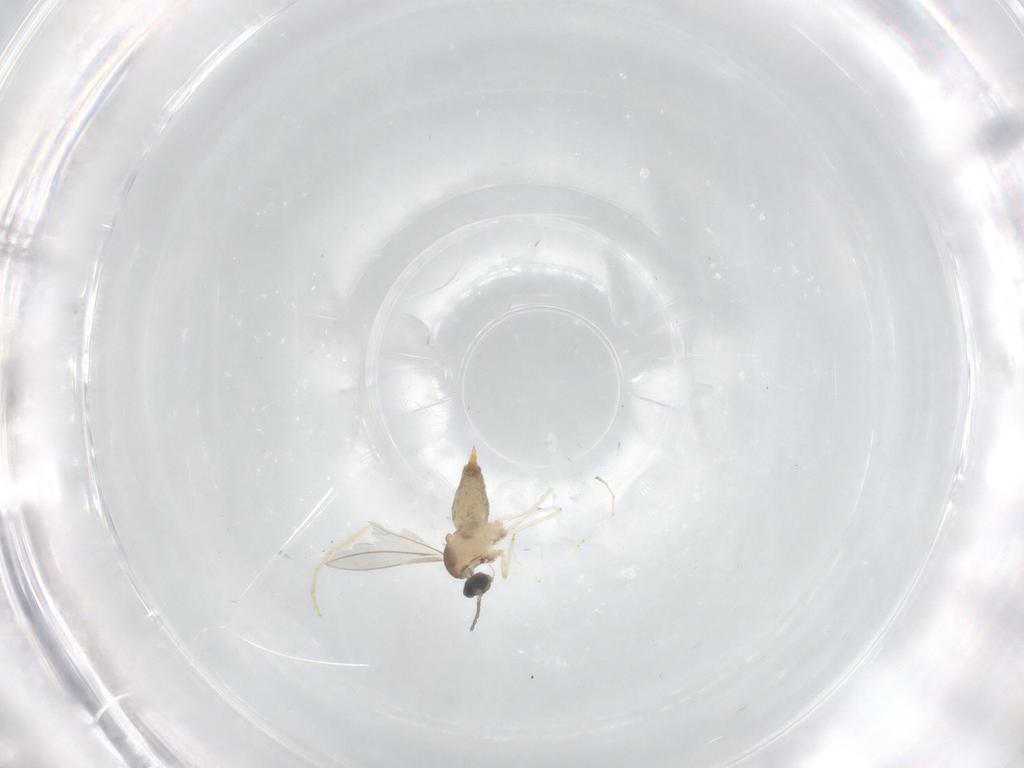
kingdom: Animalia
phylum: Arthropoda
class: Insecta
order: Diptera
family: Cecidomyiidae
